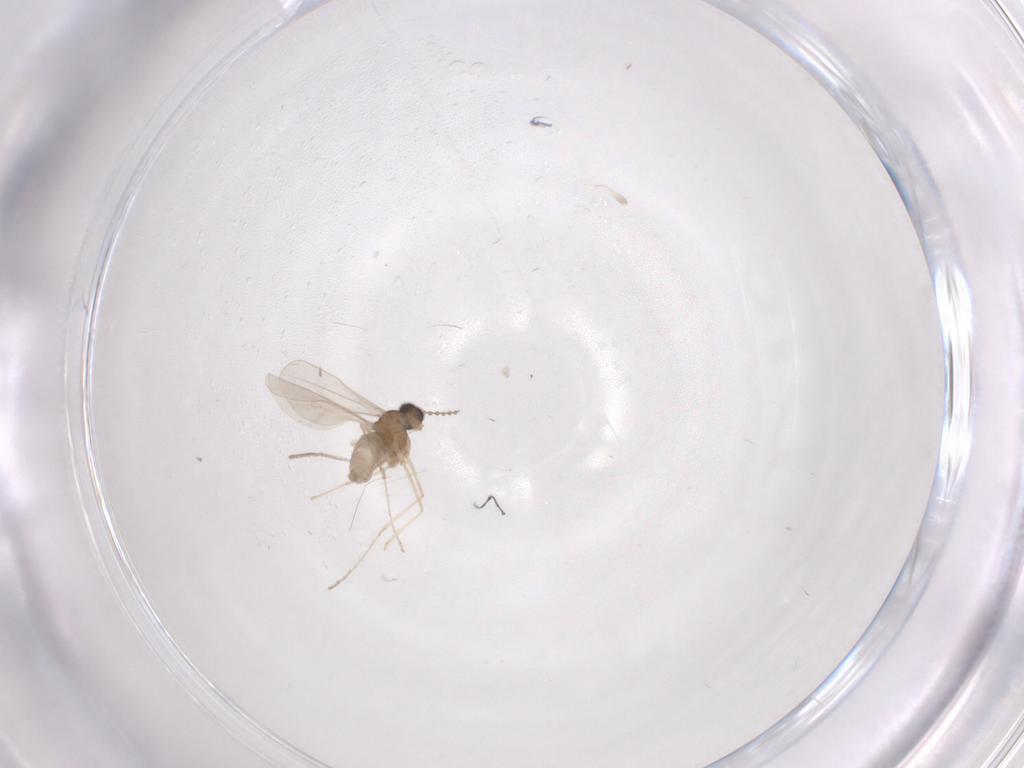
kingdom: Animalia
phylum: Arthropoda
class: Insecta
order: Diptera
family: Cecidomyiidae
